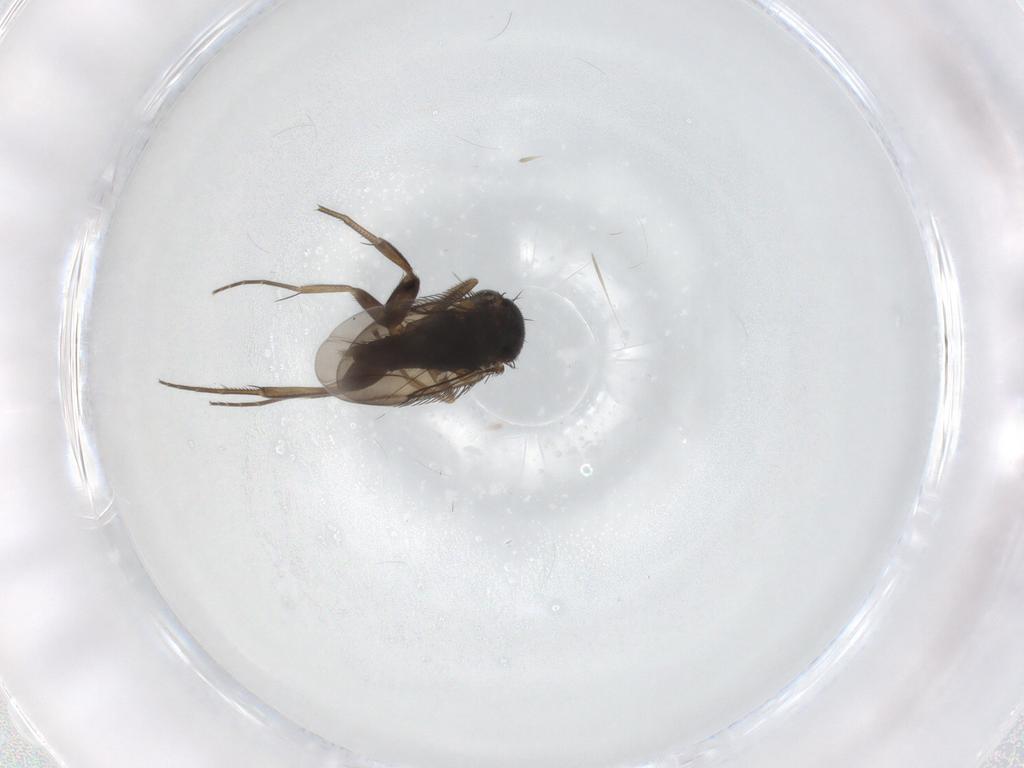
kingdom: Animalia
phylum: Arthropoda
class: Insecta
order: Diptera
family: Phoridae
